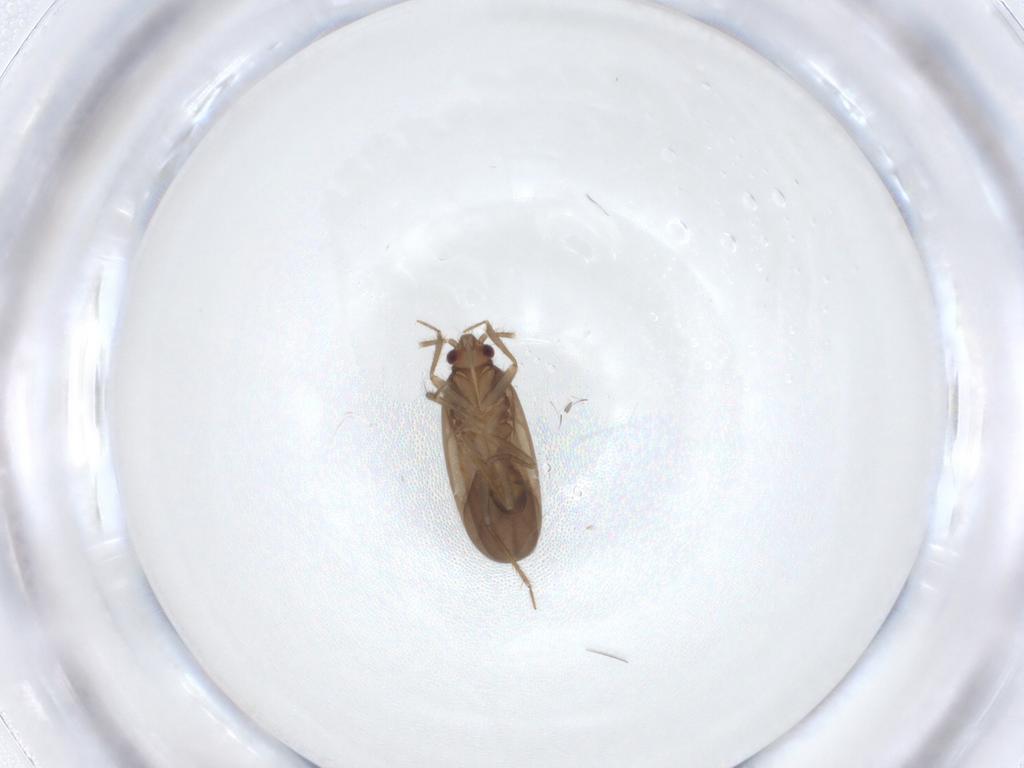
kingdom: Animalia
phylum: Arthropoda
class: Insecta
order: Hemiptera
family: Ceratocombidae
